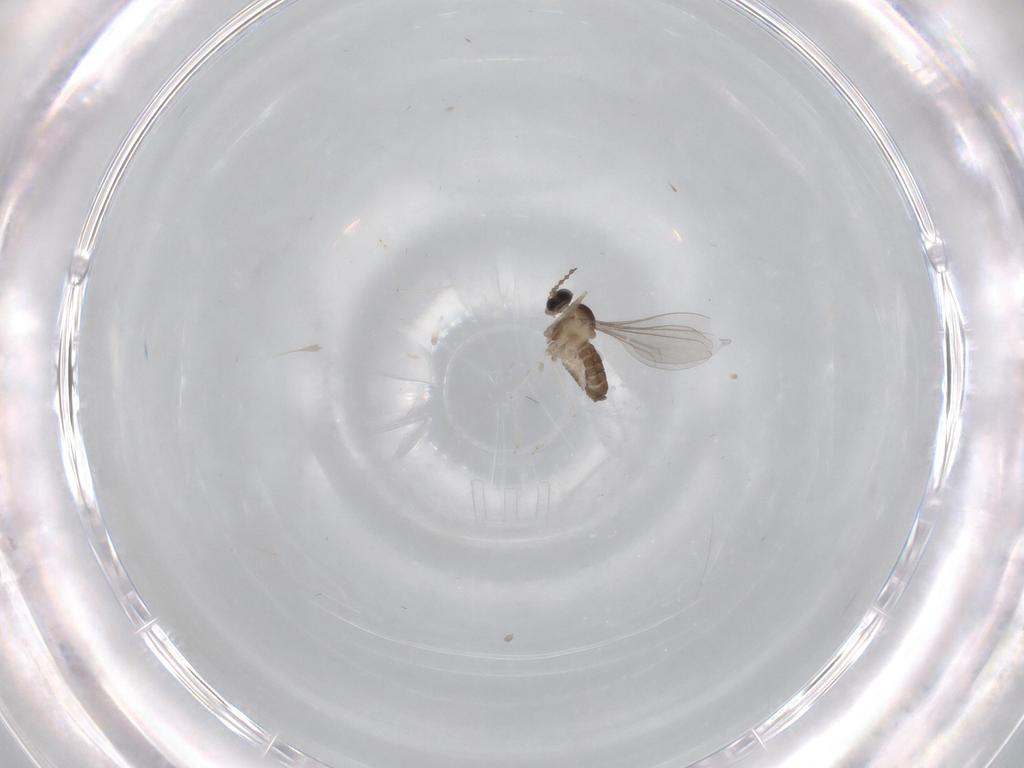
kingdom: Animalia
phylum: Arthropoda
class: Insecta
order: Diptera
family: Cecidomyiidae
